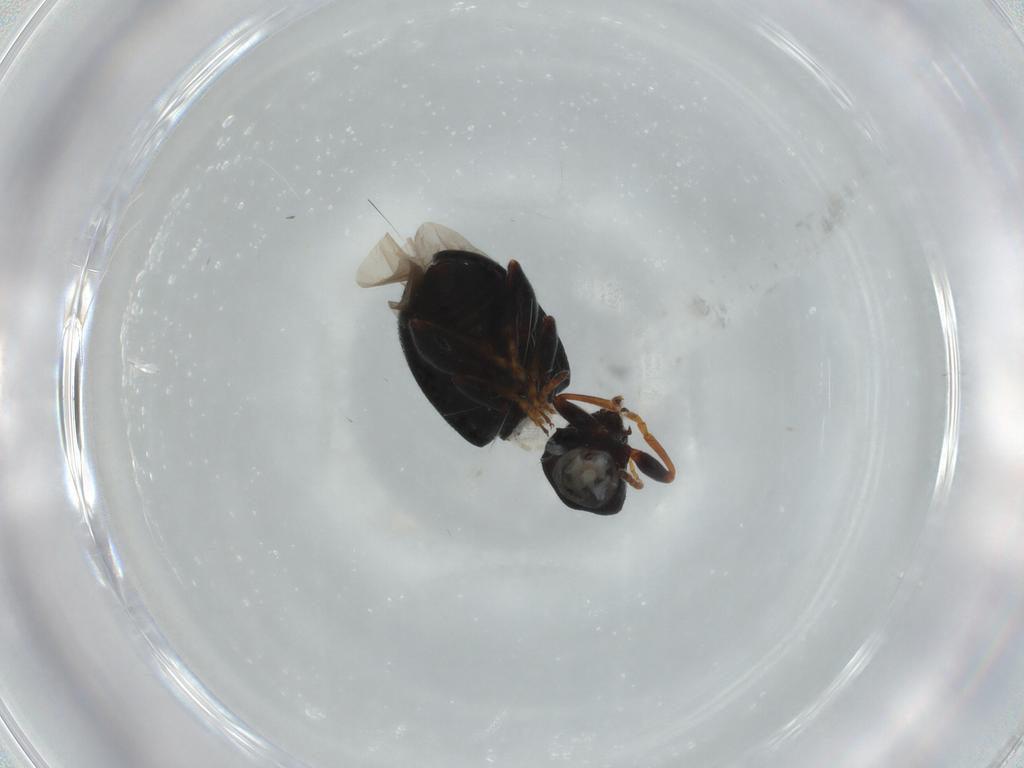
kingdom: Animalia
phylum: Arthropoda
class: Insecta
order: Coleoptera
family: Chrysomelidae
